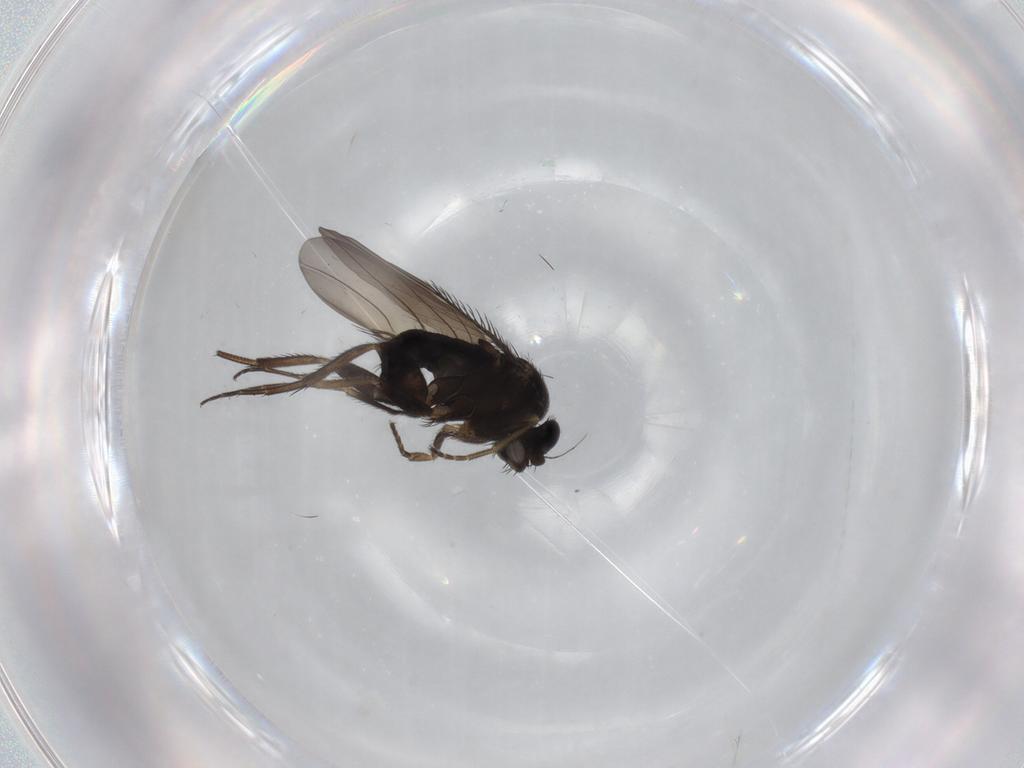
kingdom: Animalia
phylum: Arthropoda
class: Insecta
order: Diptera
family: Phoridae
